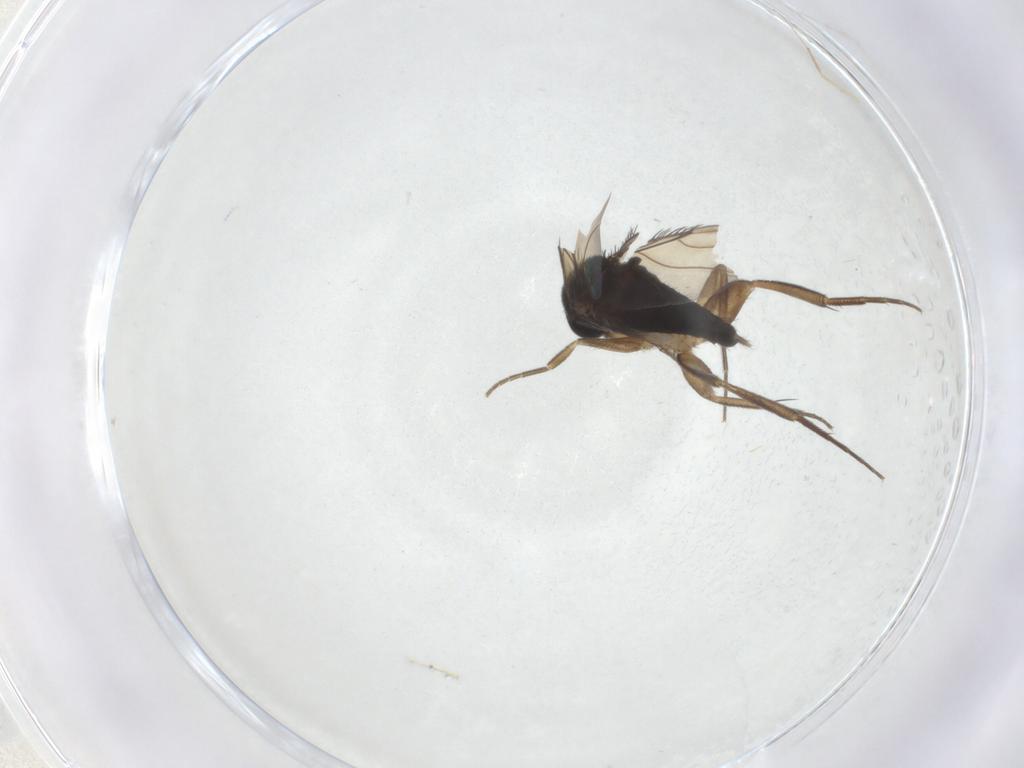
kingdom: Animalia
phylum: Arthropoda
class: Insecta
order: Diptera
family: Phoridae
